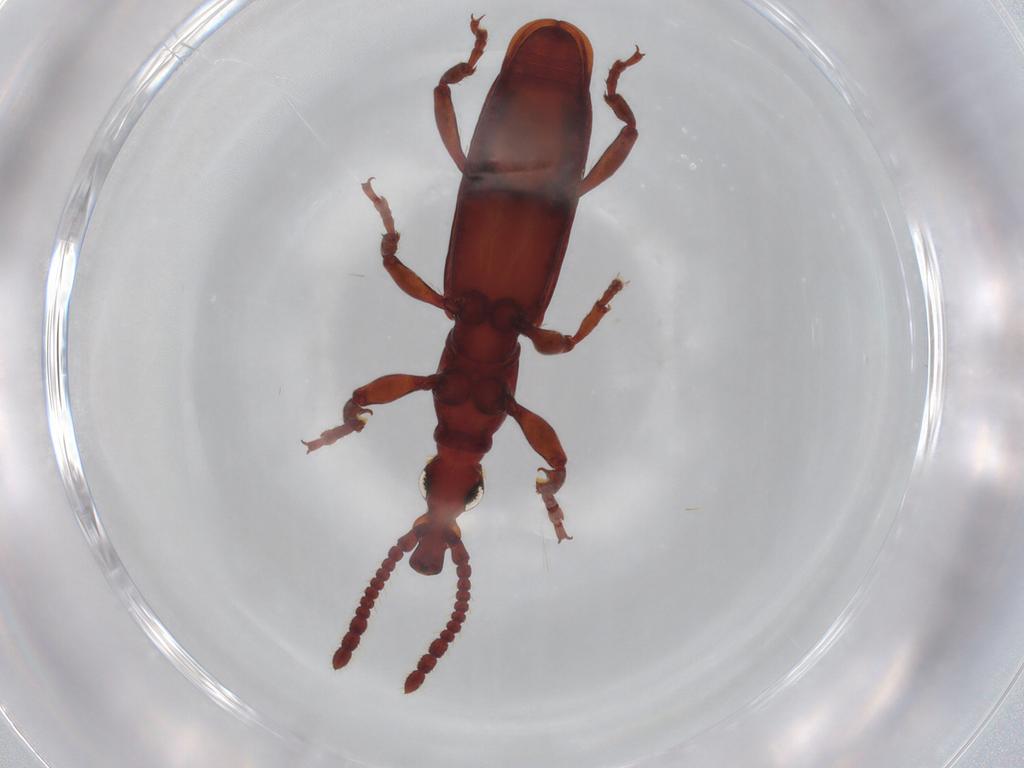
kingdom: Animalia
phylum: Arthropoda
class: Insecta
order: Coleoptera
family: Brentidae
